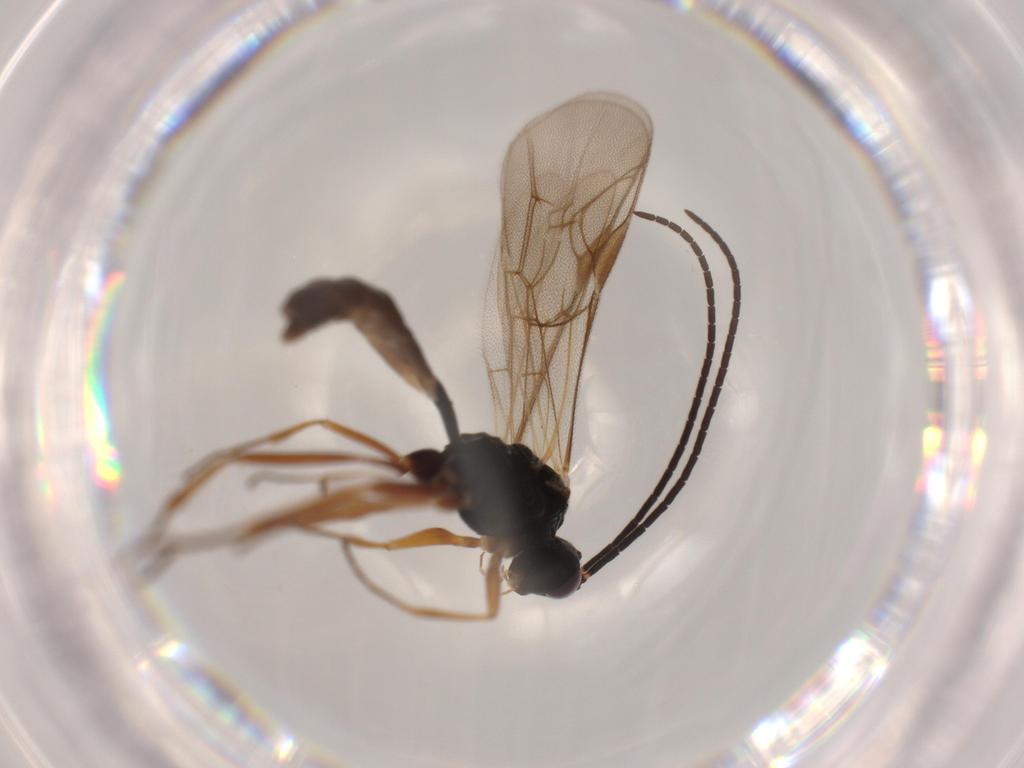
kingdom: Animalia
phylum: Arthropoda
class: Insecta
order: Hymenoptera
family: Ichneumonidae
